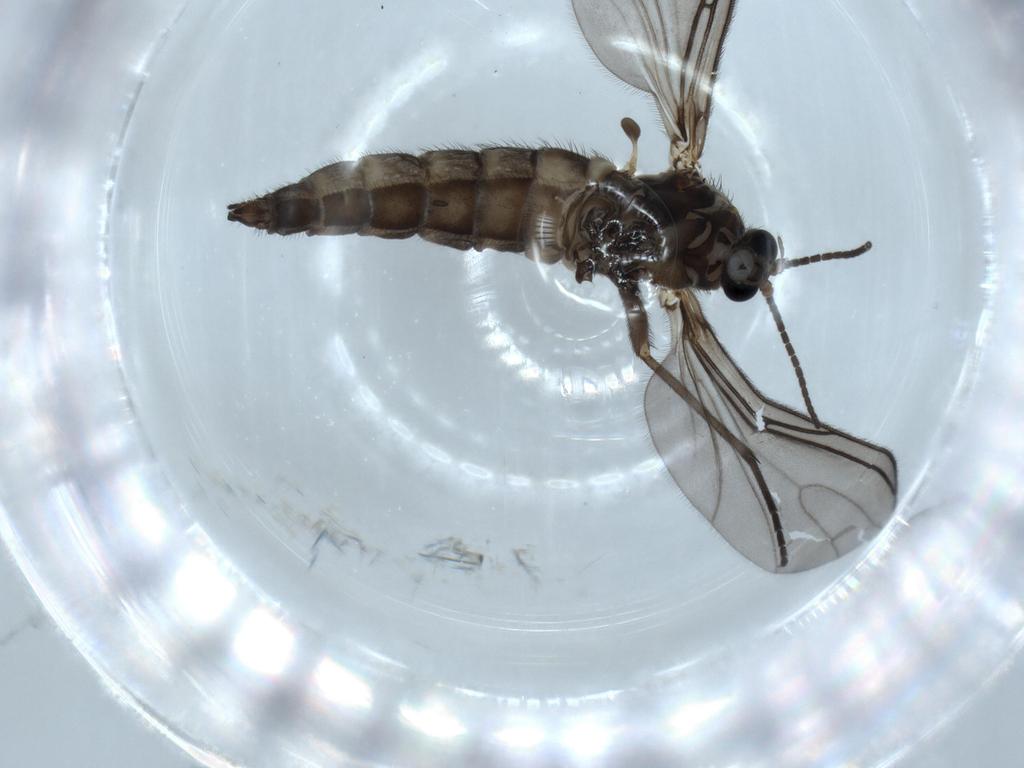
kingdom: Animalia
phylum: Arthropoda
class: Insecta
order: Diptera
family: Sciaridae
